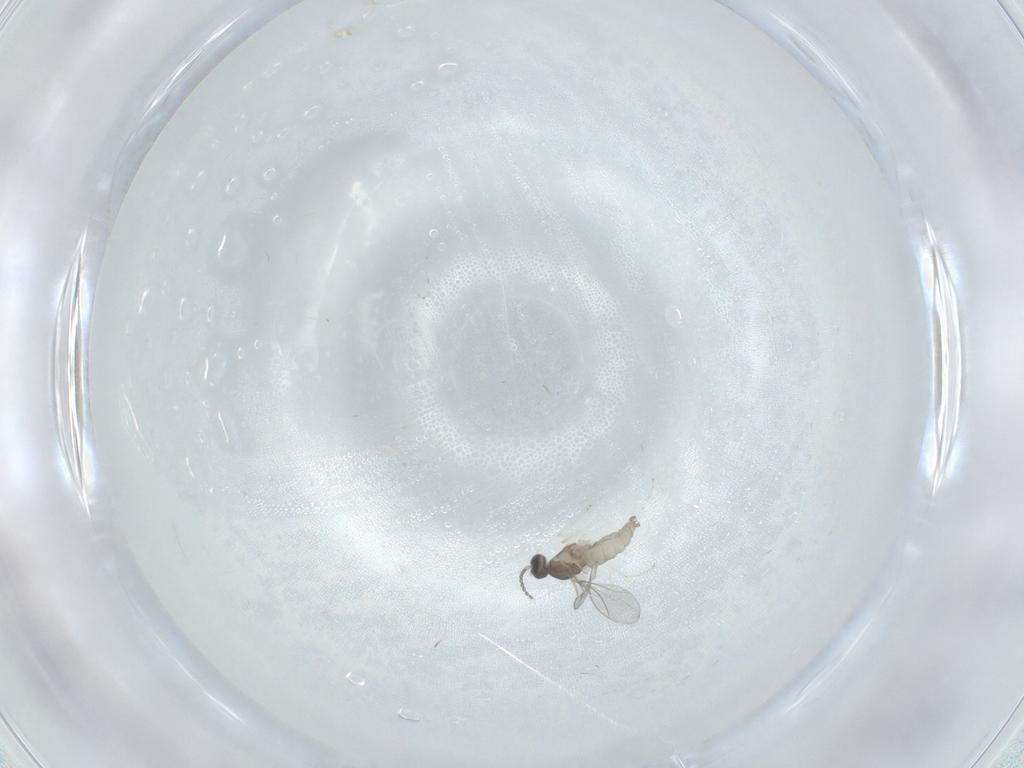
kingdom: Animalia
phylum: Arthropoda
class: Insecta
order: Diptera
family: Cecidomyiidae
